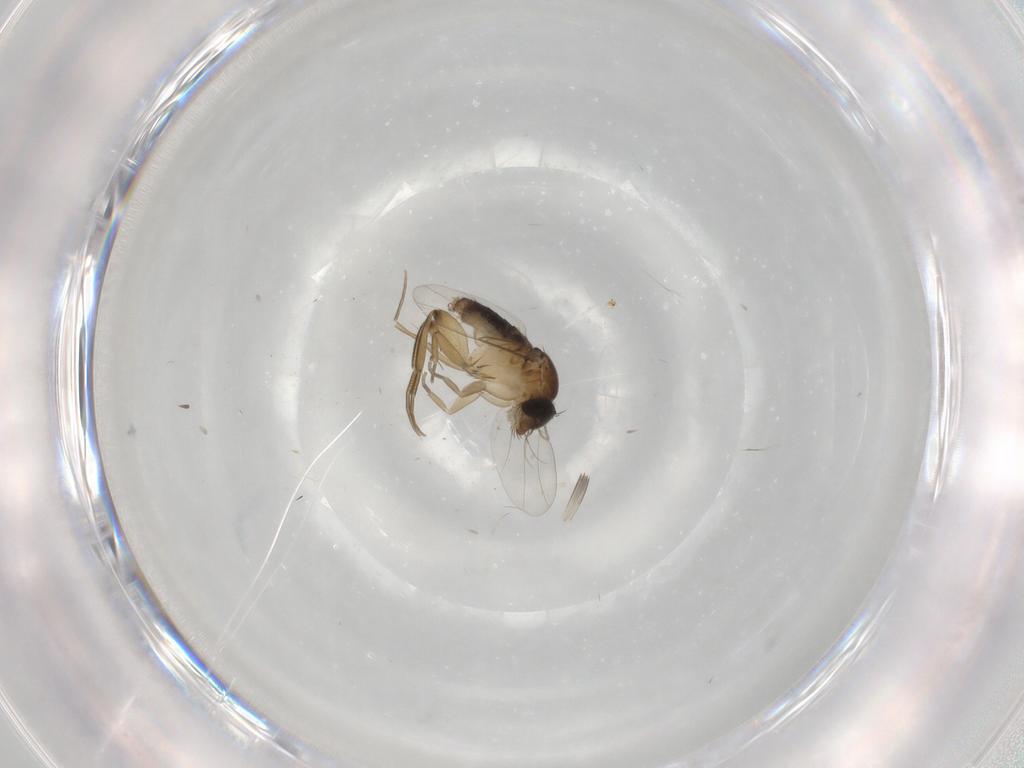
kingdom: Animalia
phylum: Arthropoda
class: Insecta
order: Diptera
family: Phoridae
